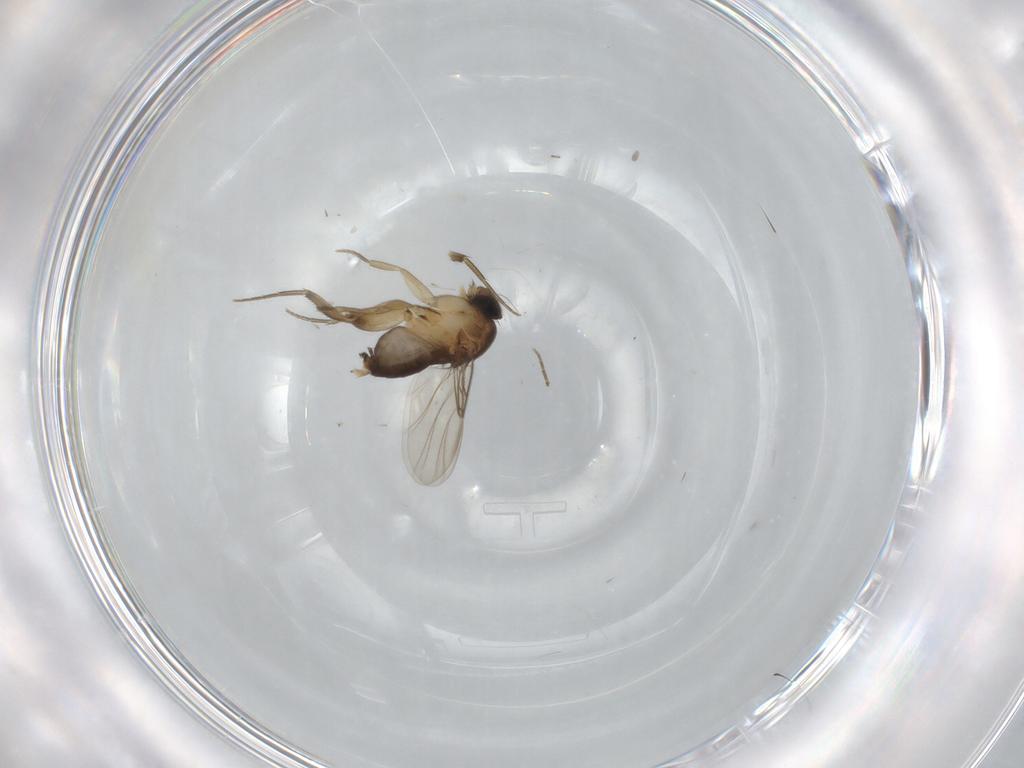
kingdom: Animalia
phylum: Arthropoda
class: Insecta
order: Diptera
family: Phoridae
